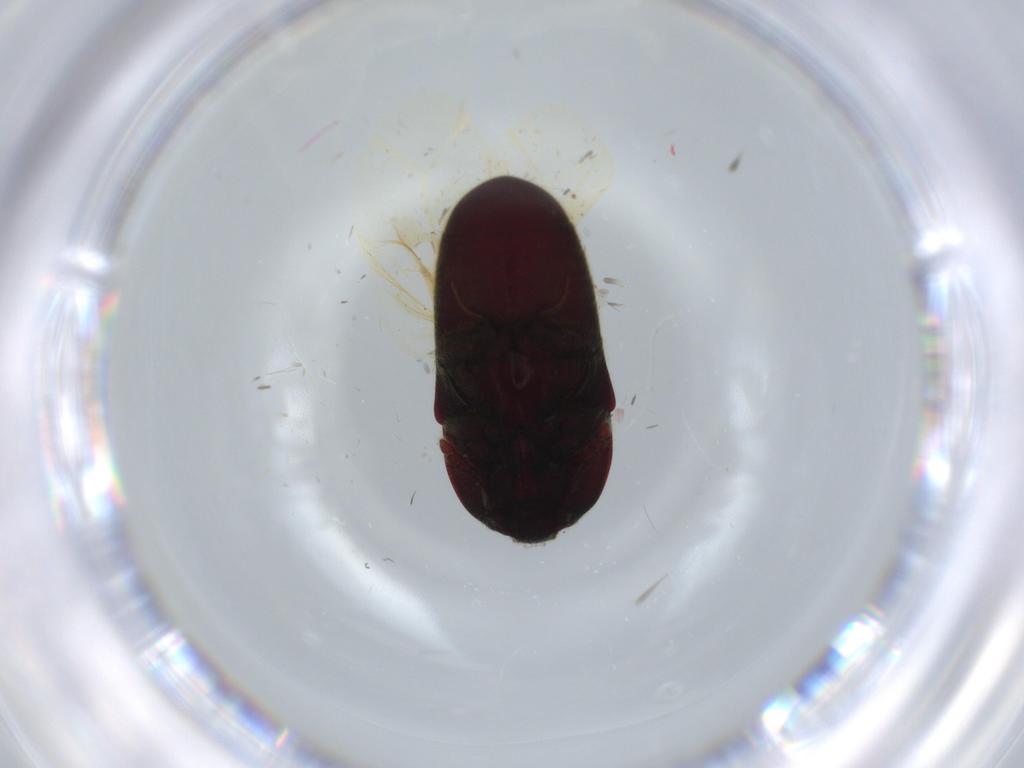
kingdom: Animalia
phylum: Arthropoda
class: Insecta
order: Coleoptera
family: Throscidae
